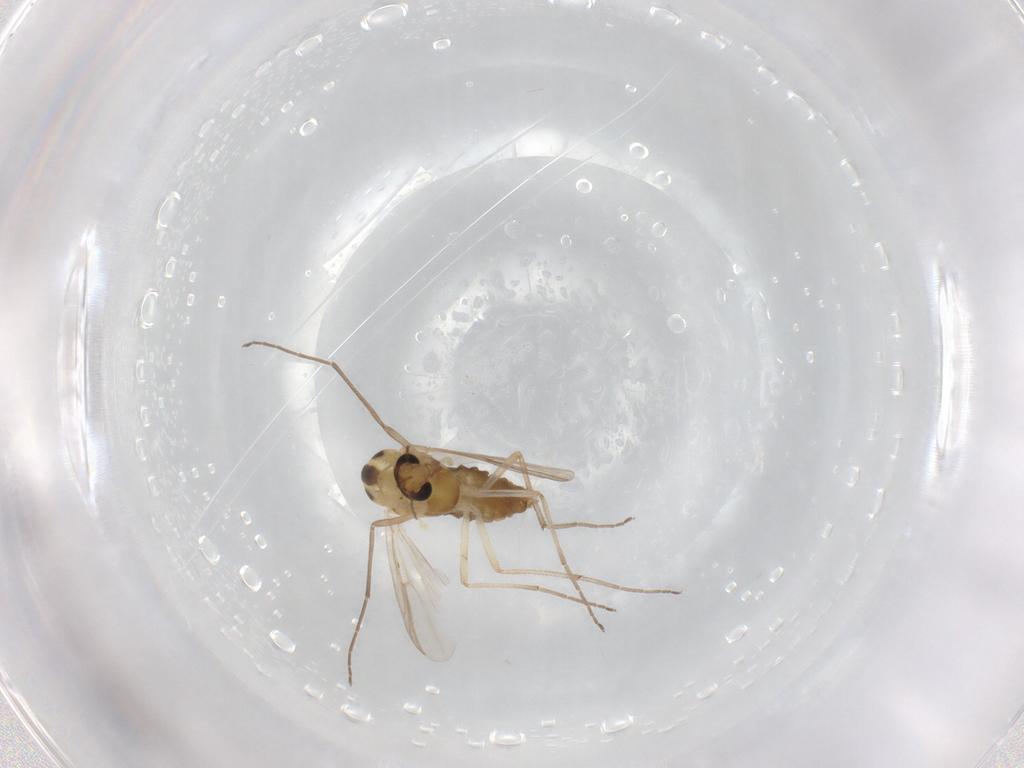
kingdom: Animalia
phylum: Arthropoda
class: Insecta
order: Diptera
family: Chironomidae
